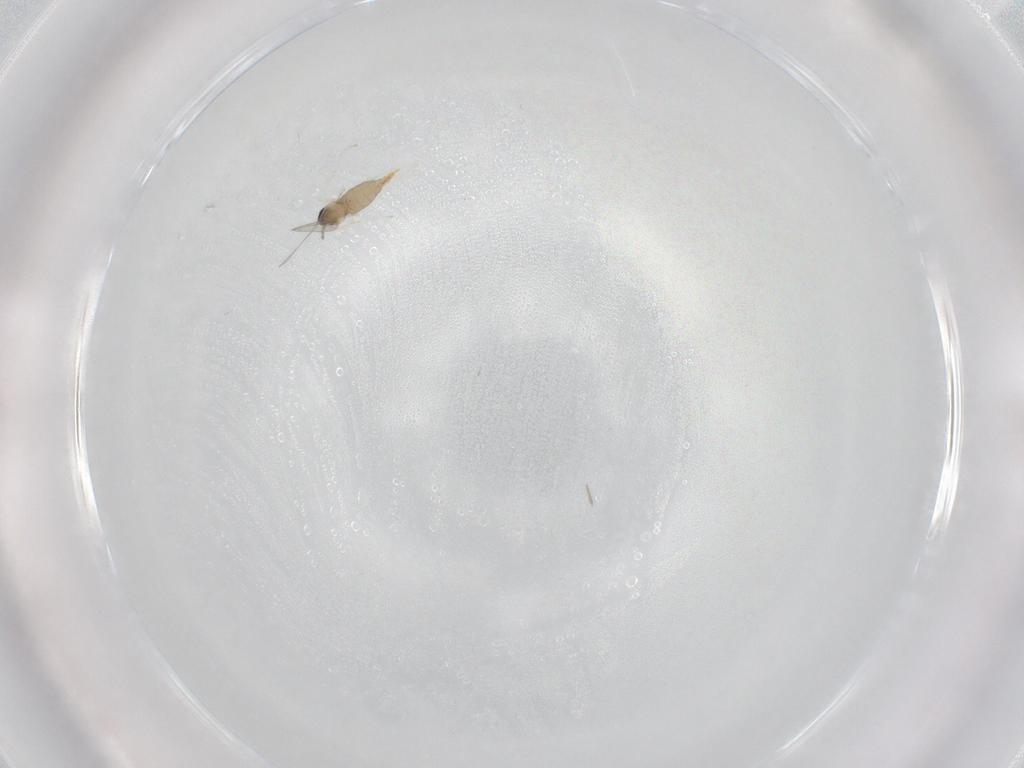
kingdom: Animalia
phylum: Arthropoda
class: Insecta
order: Diptera
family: Cecidomyiidae
